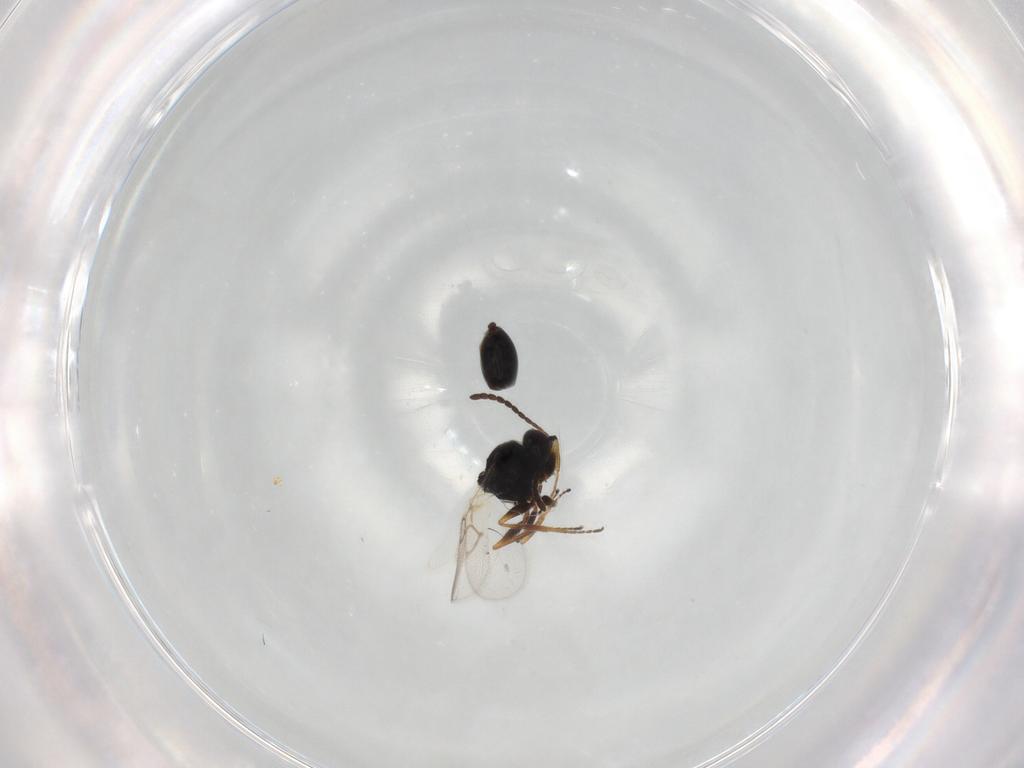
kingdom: Animalia
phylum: Arthropoda
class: Insecta
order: Hymenoptera
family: Figitidae
